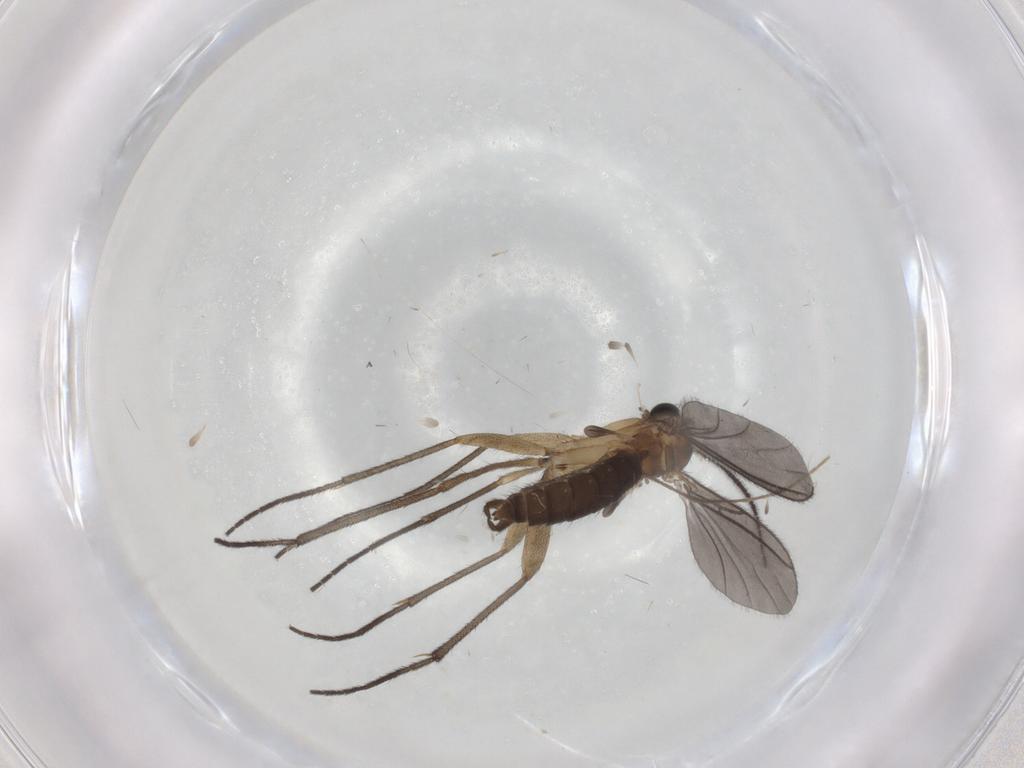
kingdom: Animalia
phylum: Arthropoda
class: Insecta
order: Diptera
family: Sciaridae
